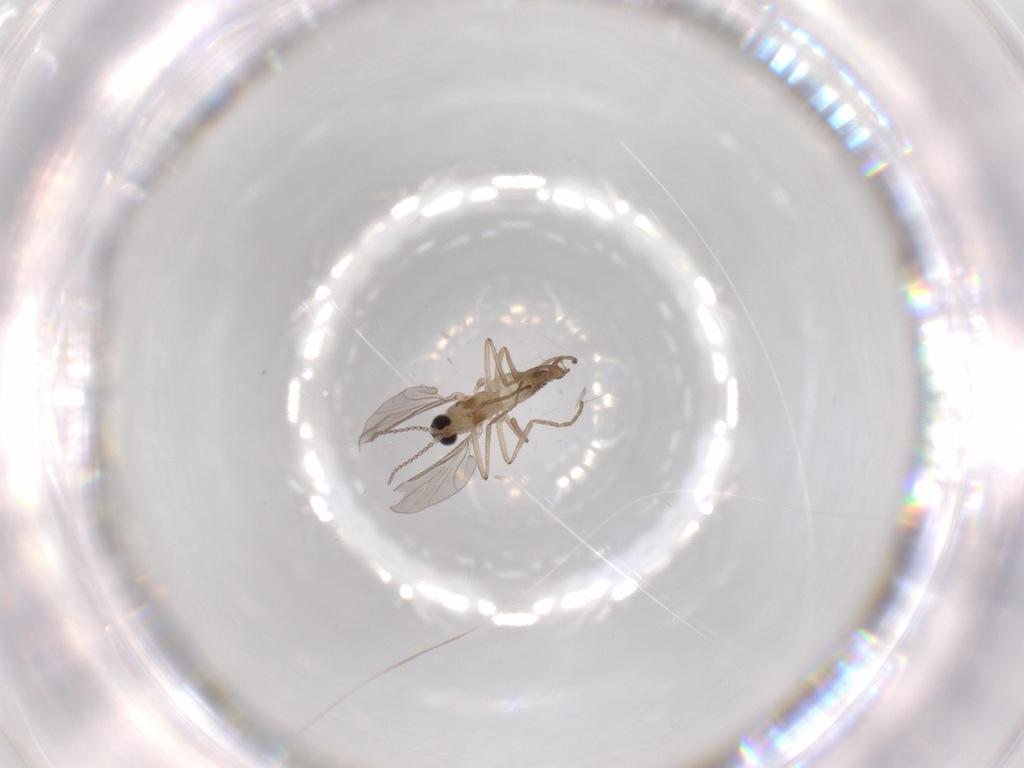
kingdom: Animalia
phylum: Arthropoda
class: Insecta
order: Diptera
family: Cecidomyiidae
